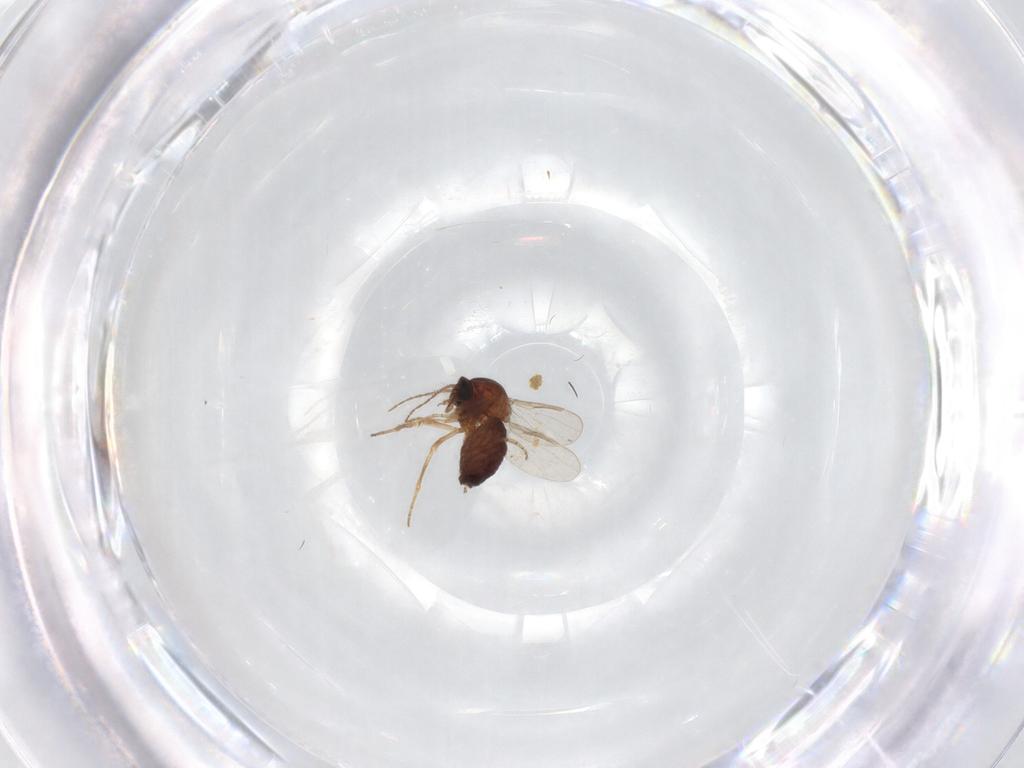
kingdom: Animalia
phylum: Arthropoda
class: Insecta
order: Diptera
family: Ceratopogonidae
